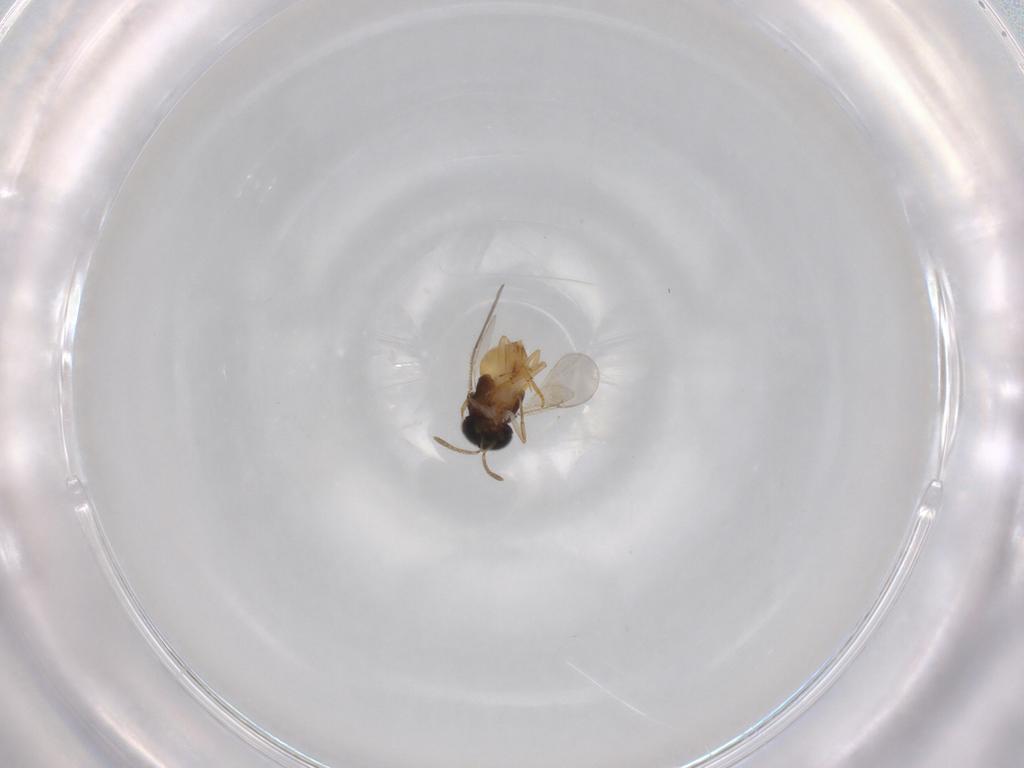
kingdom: Animalia
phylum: Arthropoda
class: Insecta
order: Hymenoptera
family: Encyrtidae
